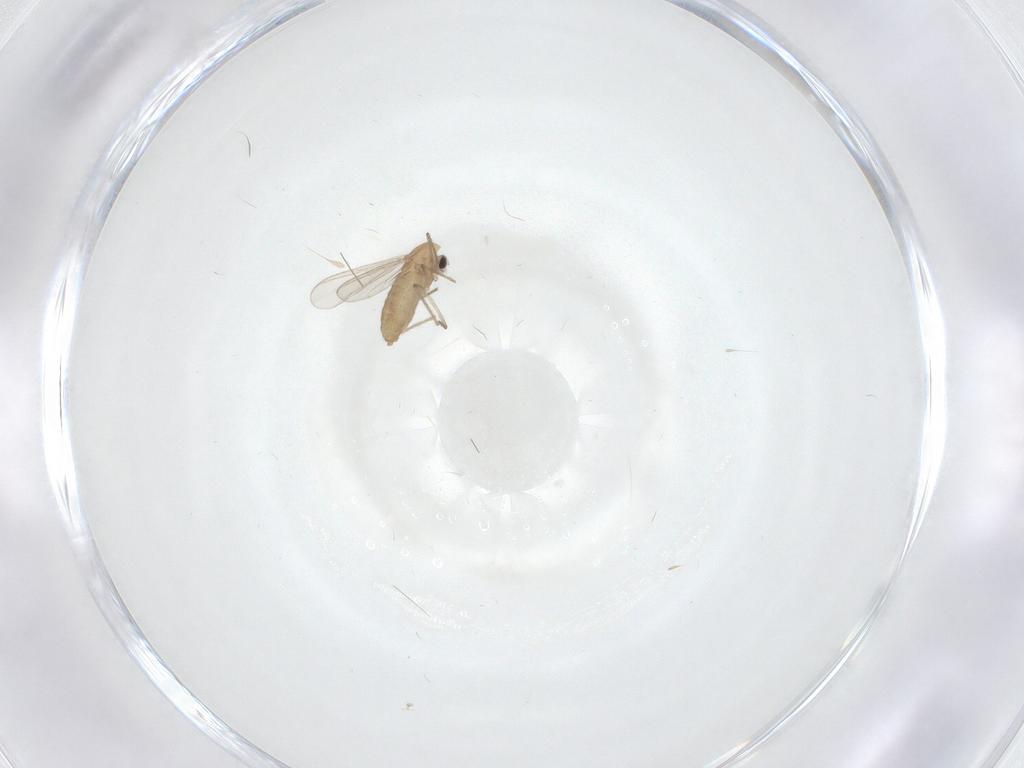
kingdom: Animalia
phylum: Arthropoda
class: Insecta
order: Diptera
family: Chironomidae
